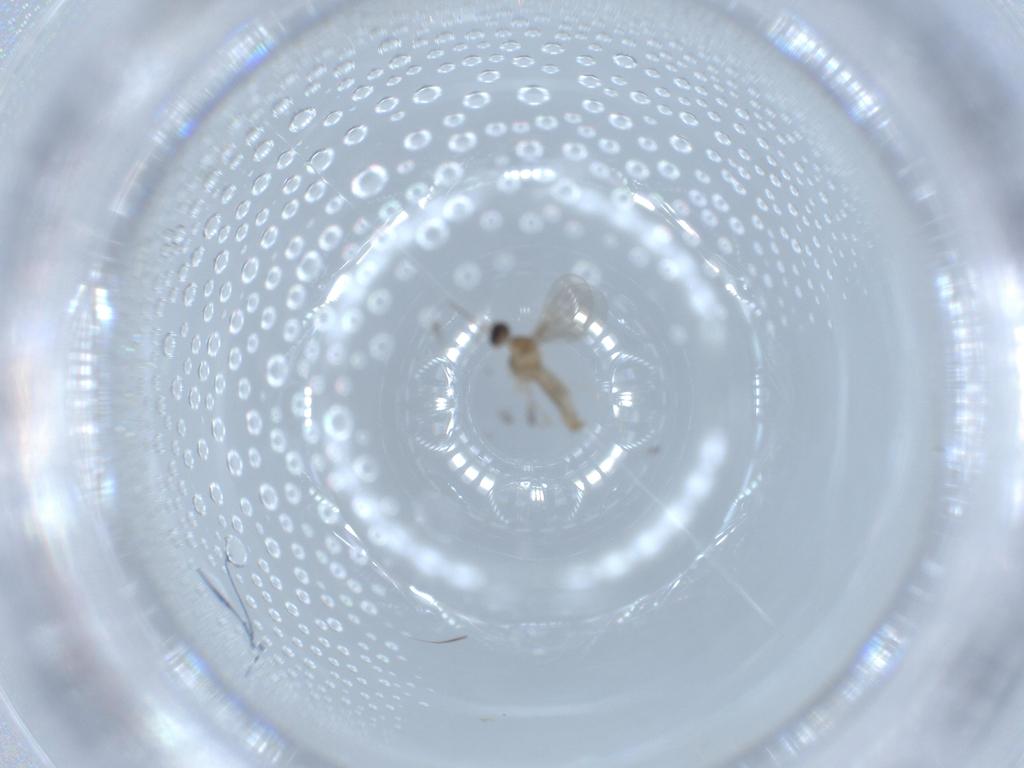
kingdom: Animalia
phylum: Arthropoda
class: Insecta
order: Diptera
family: Cecidomyiidae
